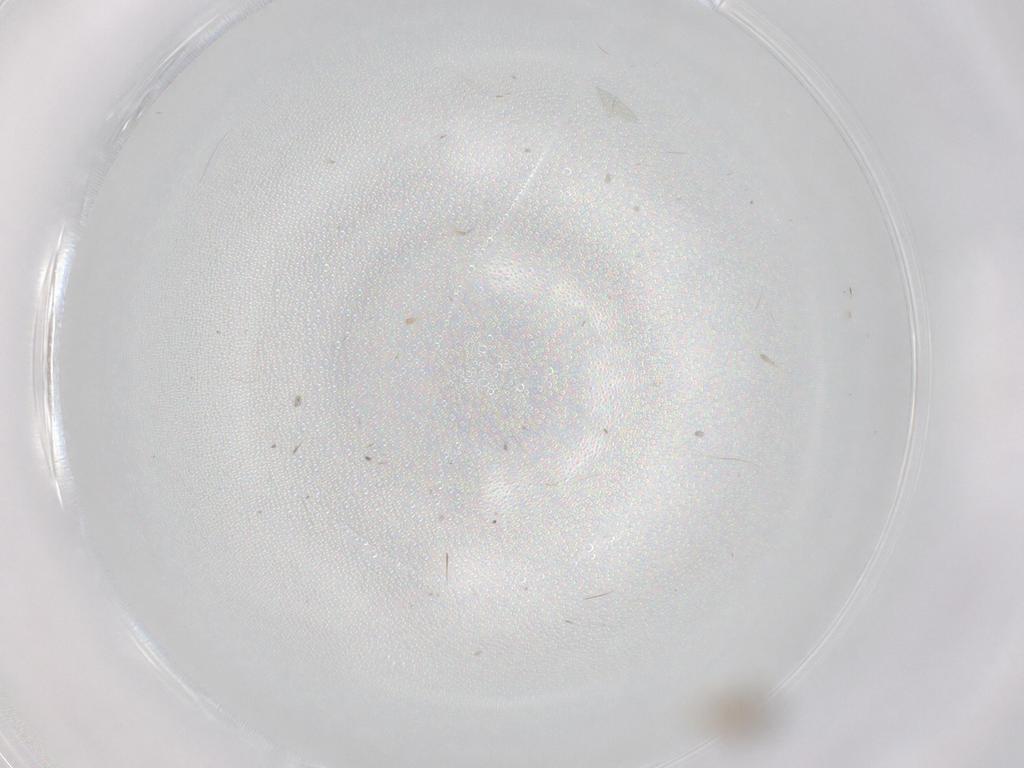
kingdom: Animalia
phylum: Arthropoda
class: Insecta
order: Diptera
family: Cecidomyiidae
